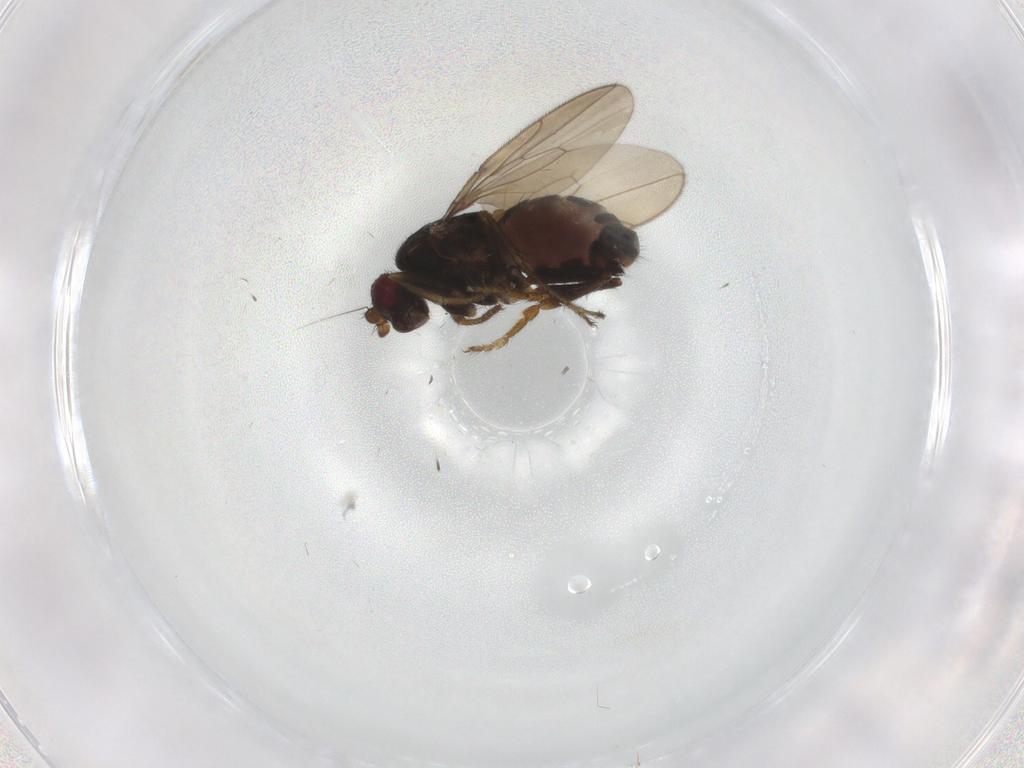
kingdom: Animalia
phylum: Arthropoda
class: Insecta
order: Diptera
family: Sphaeroceridae
